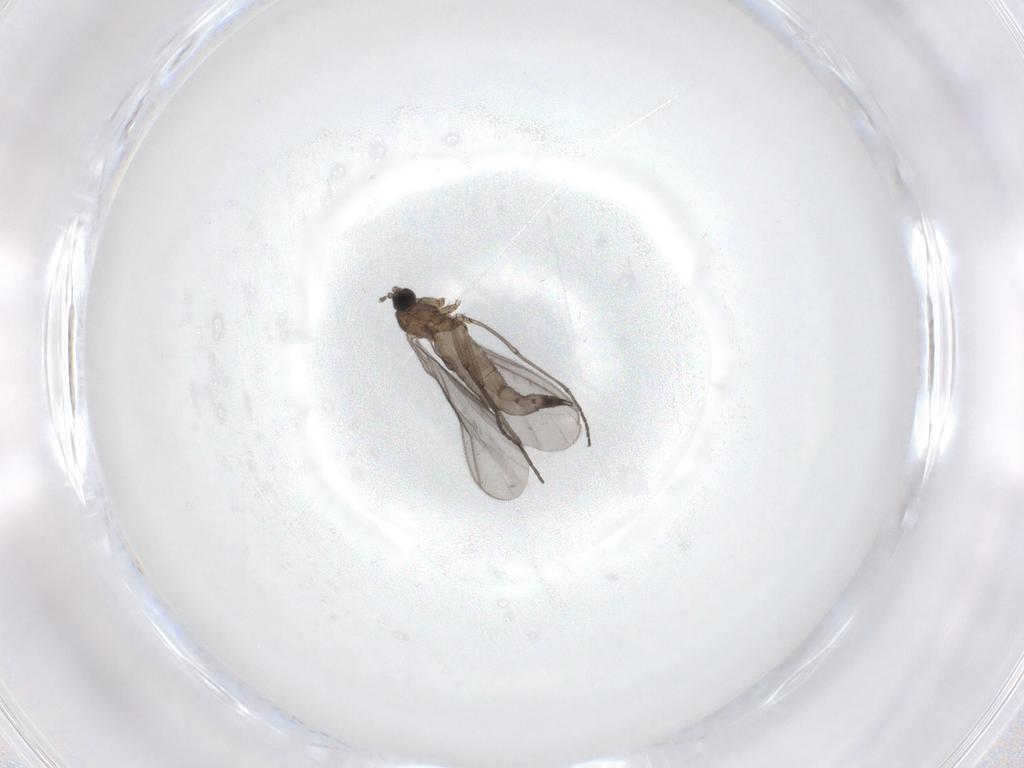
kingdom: Animalia
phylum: Arthropoda
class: Insecta
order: Diptera
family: Sciaridae
